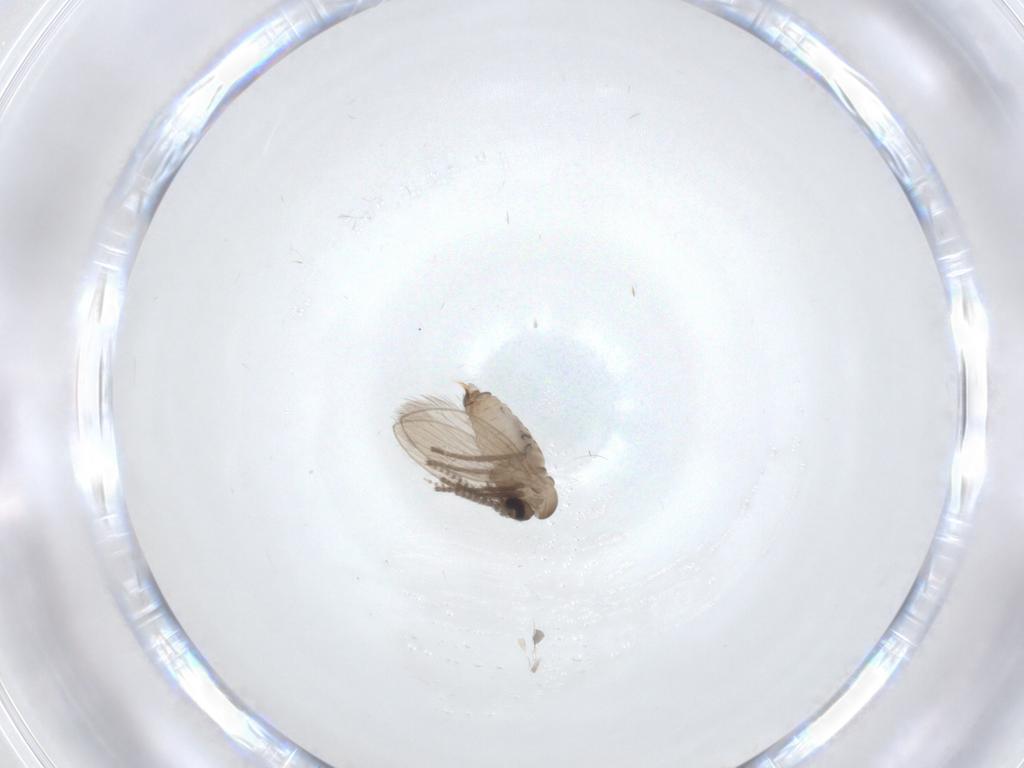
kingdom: Animalia
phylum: Arthropoda
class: Insecta
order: Diptera
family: Psychodidae
